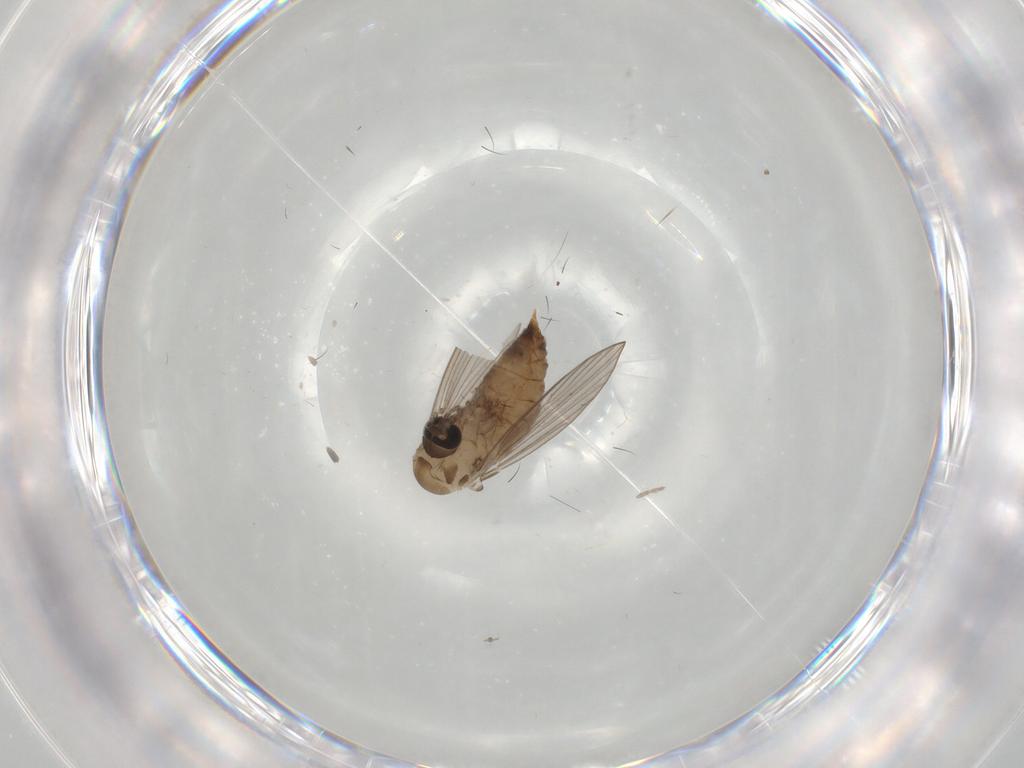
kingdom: Animalia
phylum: Arthropoda
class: Insecta
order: Diptera
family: Psychodidae
